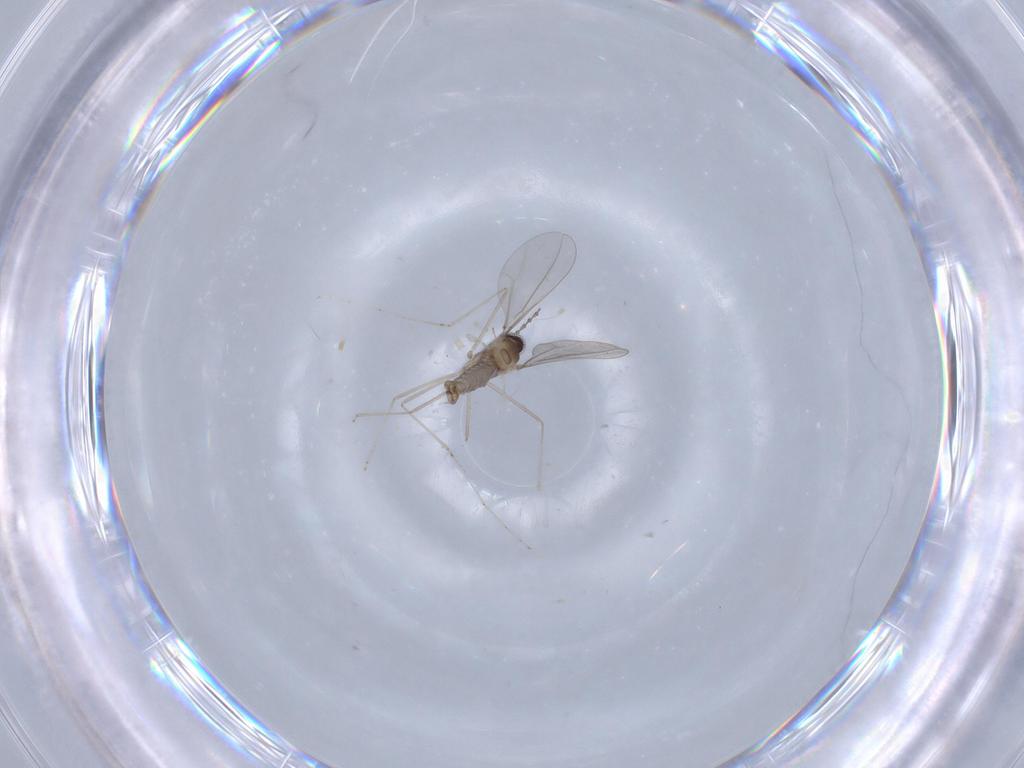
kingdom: Animalia
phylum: Arthropoda
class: Insecta
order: Diptera
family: Cecidomyiidae
